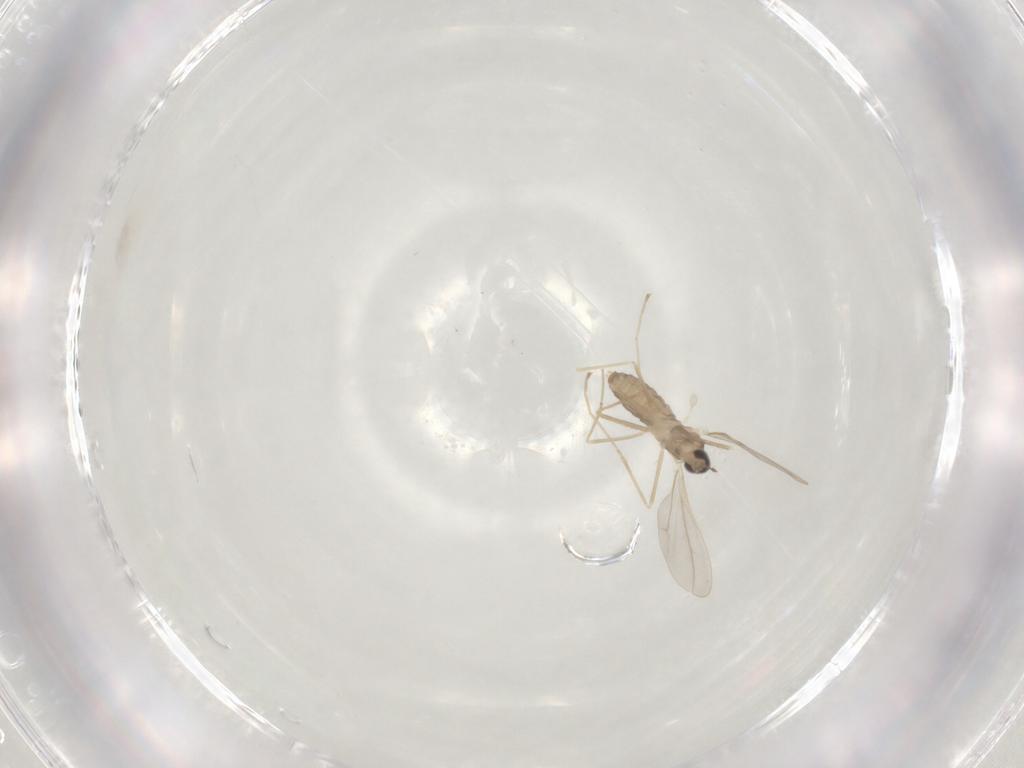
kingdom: Animalia
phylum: Arthropoda
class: Insecta
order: Diptera
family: Cecidomyiidae
